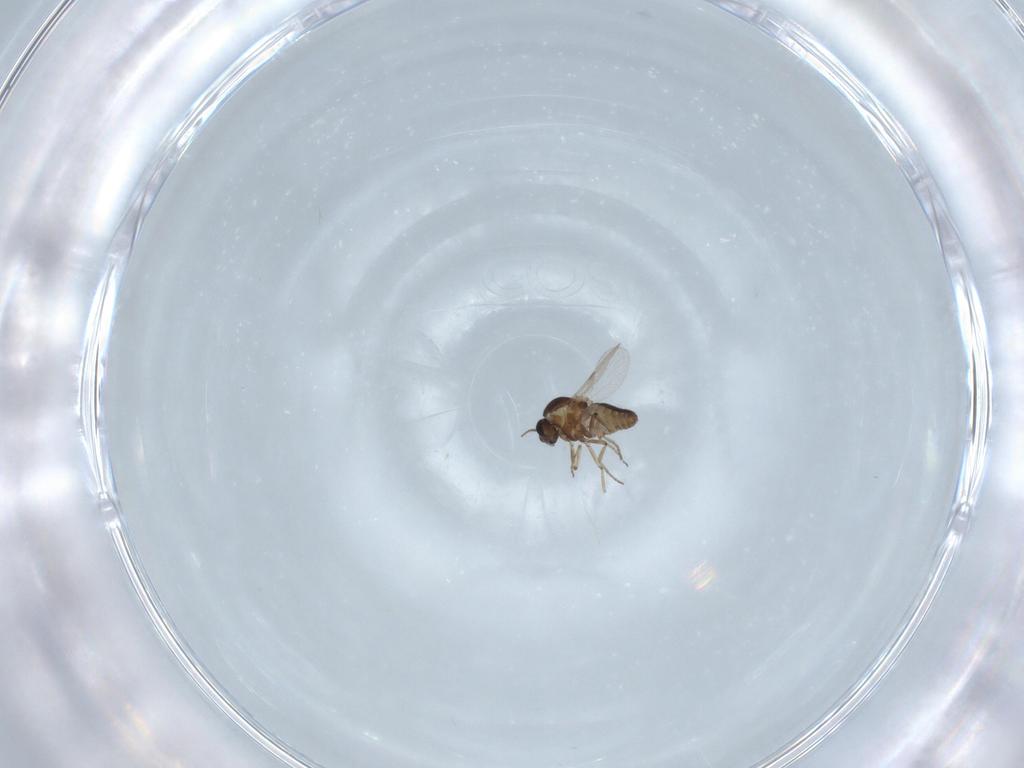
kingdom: Animalia
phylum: Arthropoda
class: Insecta
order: Diptera
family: Ceratopogonidae
